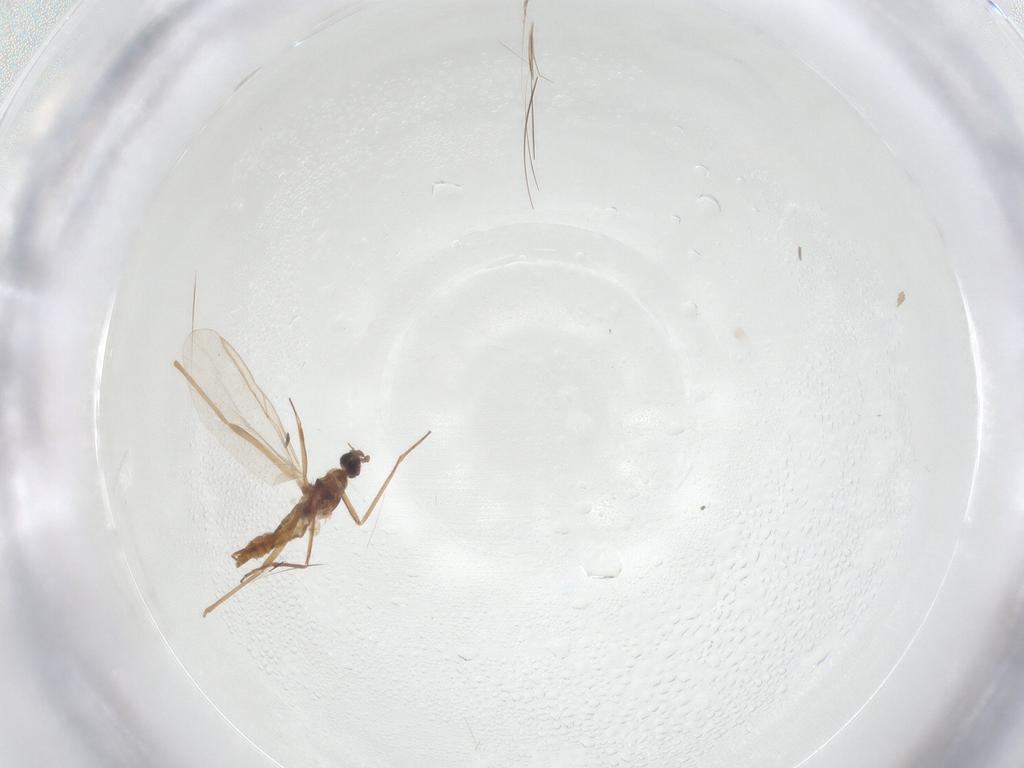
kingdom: Animalia
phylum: Arthropoda
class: Insecta
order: Diptera
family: Cecidomyiidae
